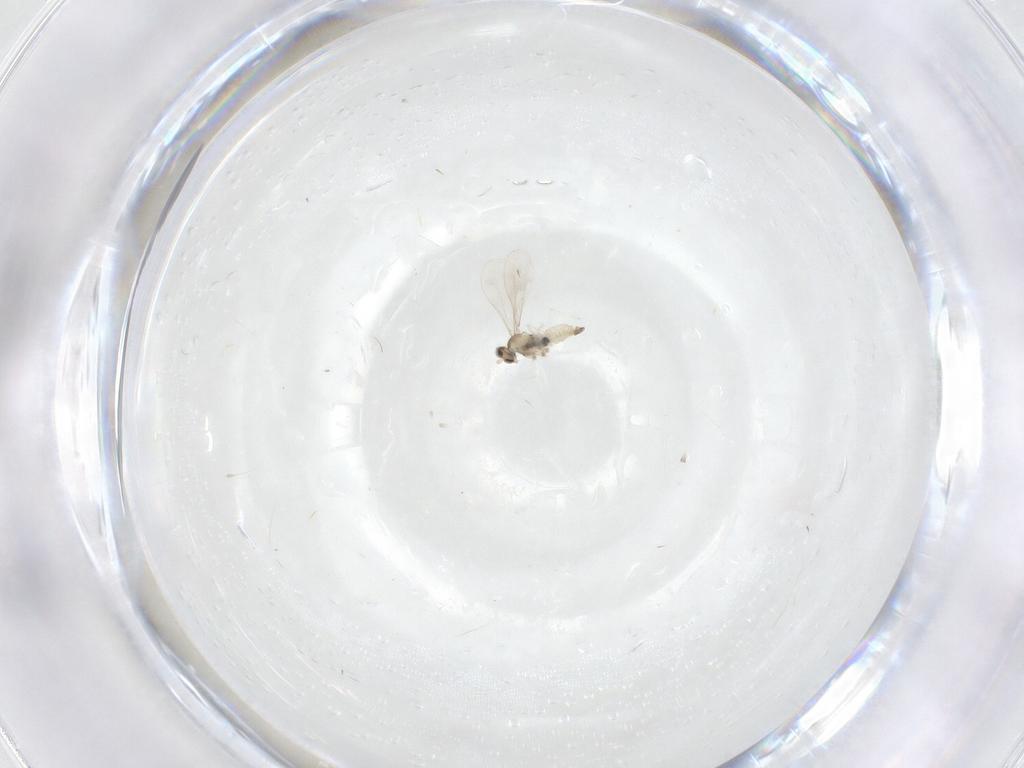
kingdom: Animalia
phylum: Arthropoda
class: Insecta
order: Diptera
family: Cecidomyiidae
